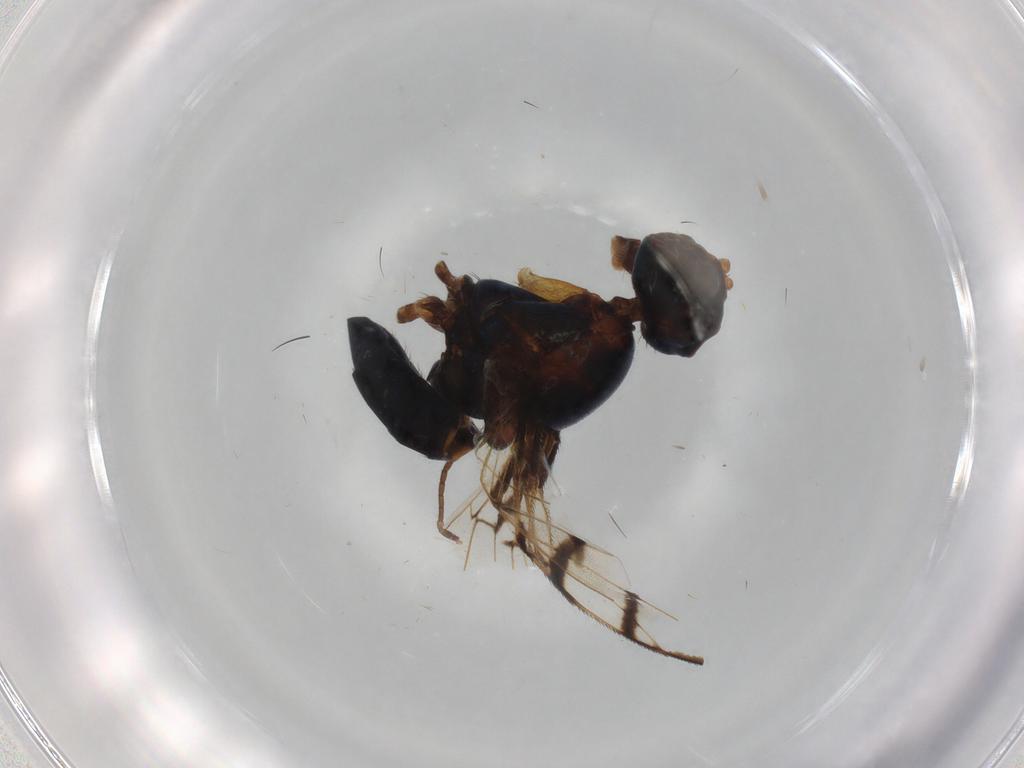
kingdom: Animalia
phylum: Arthropoda
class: Insecta
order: Diptera
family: Platystomatidae
